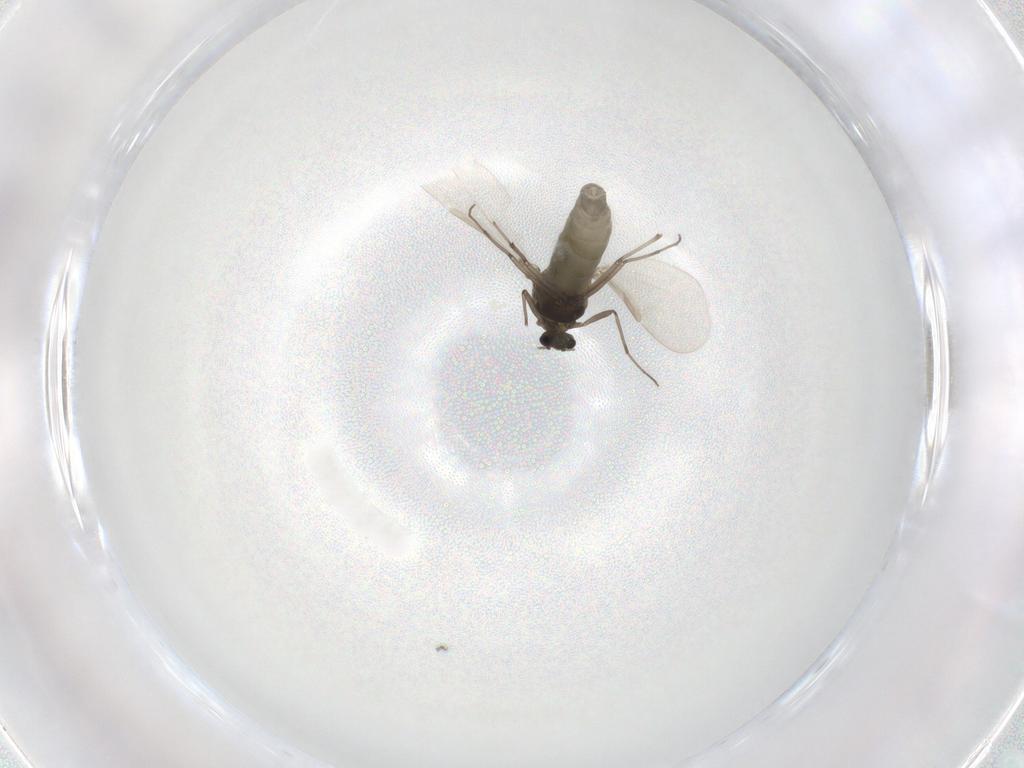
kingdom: Animalia
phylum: Arthropoda
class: Insecta
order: Diptera
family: Chironomidae
